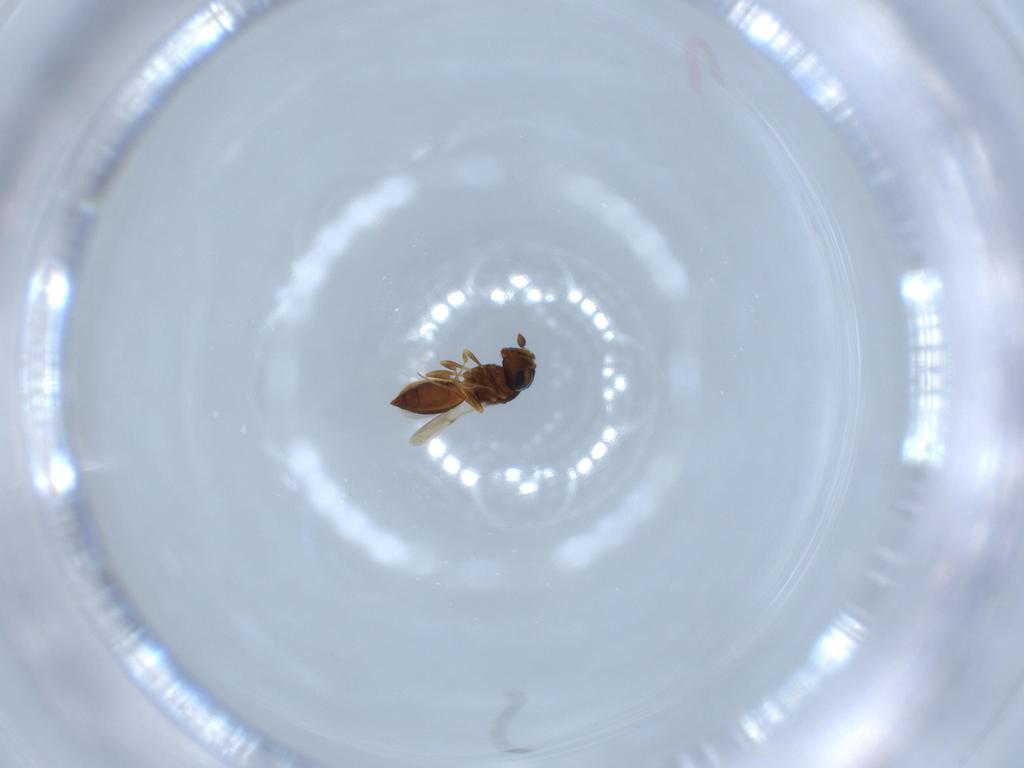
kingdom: Animalia
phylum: Arthropoda
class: Insecta
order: Hymenoptera
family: Scelionidae
